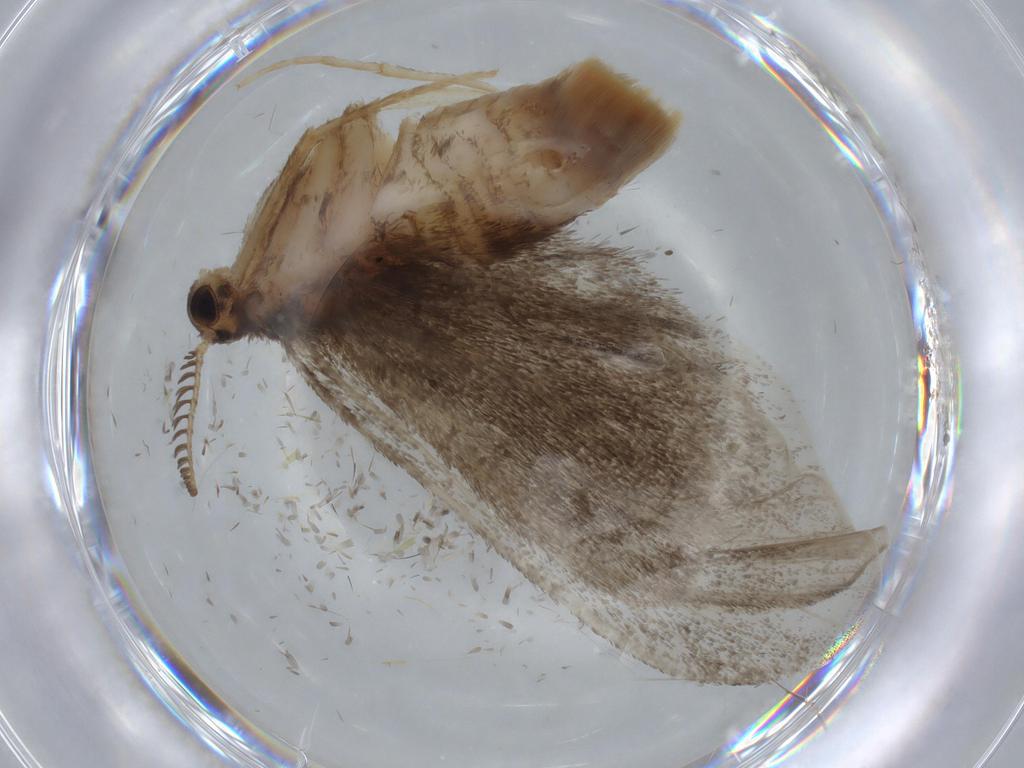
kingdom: Animalia
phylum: Arthropoda
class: Insecta
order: Lepidoptera
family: Yponomeutidae
